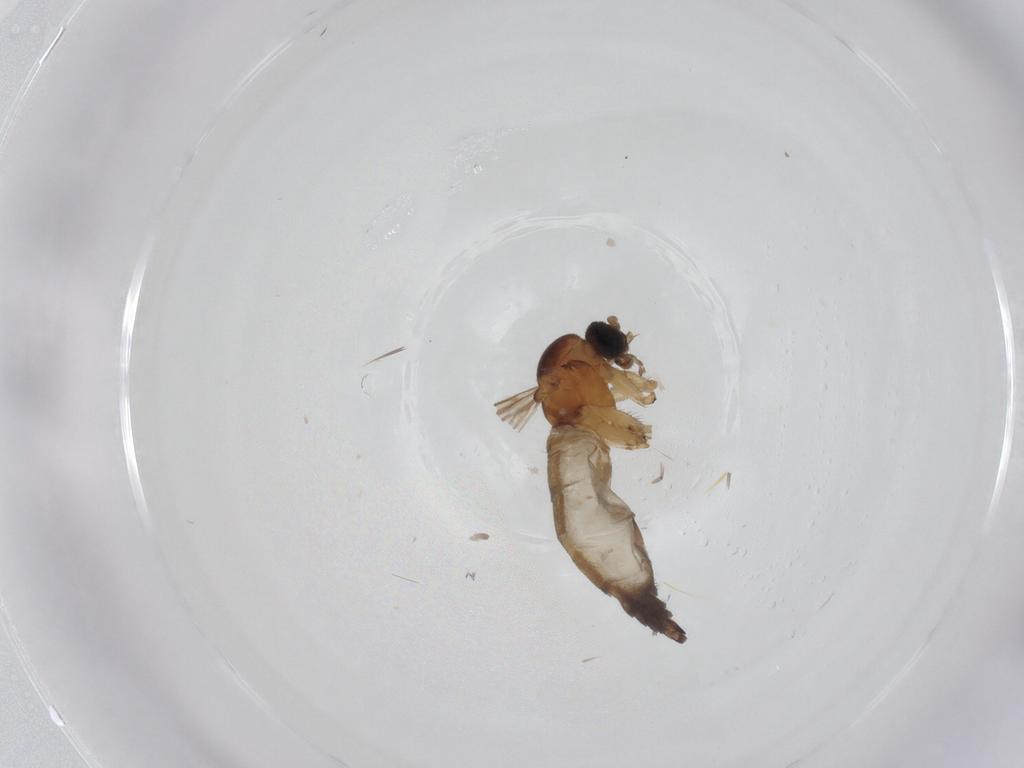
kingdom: Animalia
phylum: Arthropoda
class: Insecta
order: Diptera
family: Sciaridae
